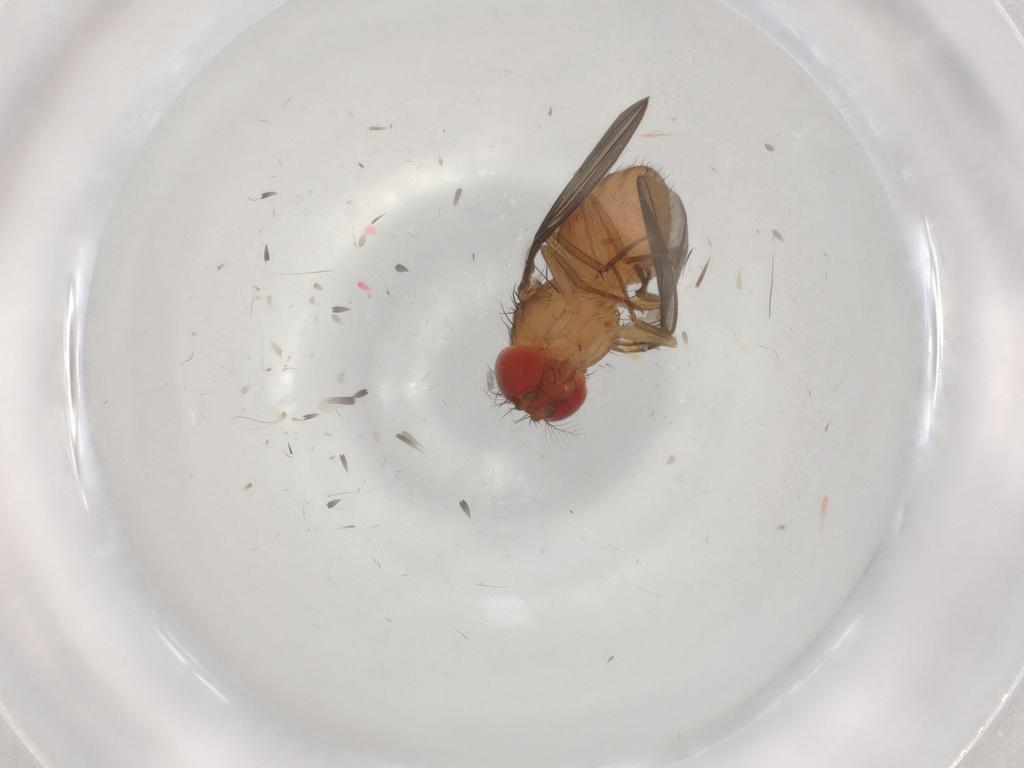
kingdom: Animalia
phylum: Arthropoda
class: Insecta
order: Diptera
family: Drosophilidae
